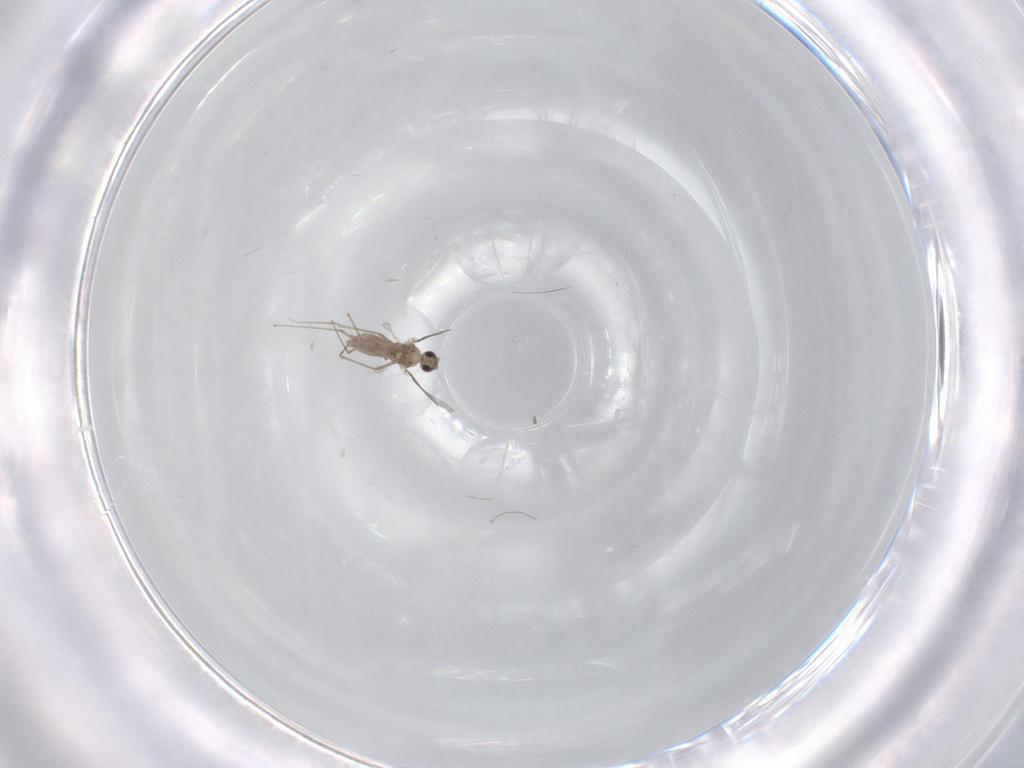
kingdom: Animalia
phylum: Arthropoda
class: Insecta
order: Diptera
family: Cecidomyiidae
